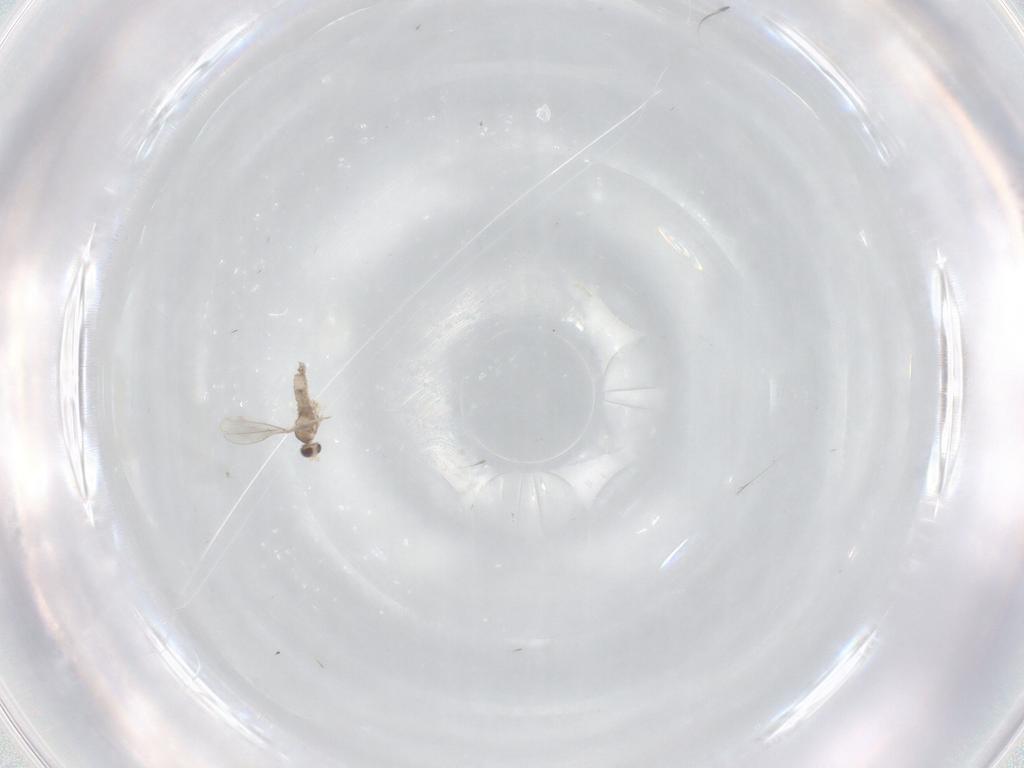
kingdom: Animalia
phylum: Arthropoda
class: Insecta
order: Diptera
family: Cecidomyiidae
